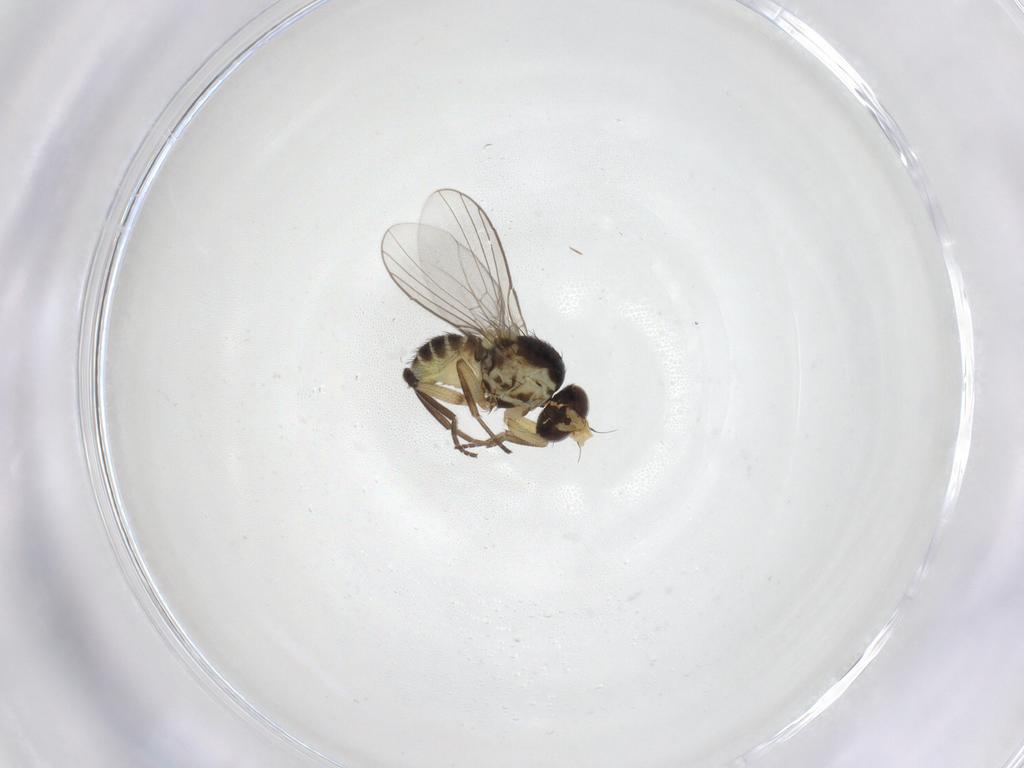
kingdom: Animalia
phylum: Arthropoda
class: Insecta
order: Diptera
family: Agromyzidae
